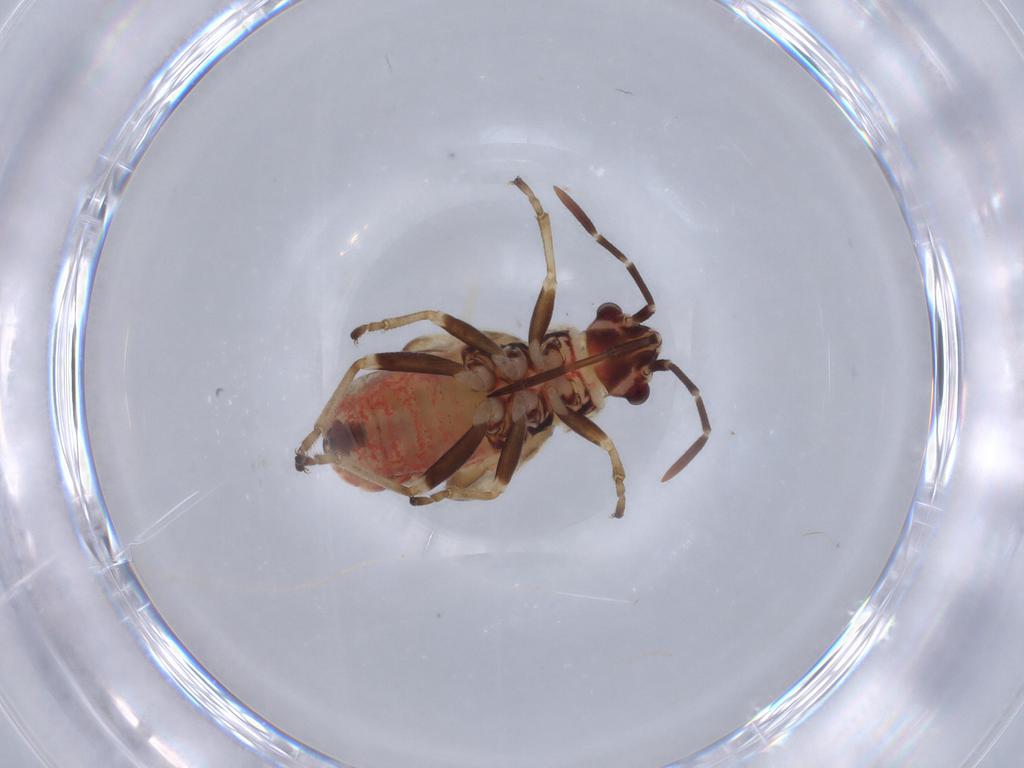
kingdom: Animalia
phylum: Arthropoda
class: Insecta
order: Hemiptera
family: Lygaeidae
